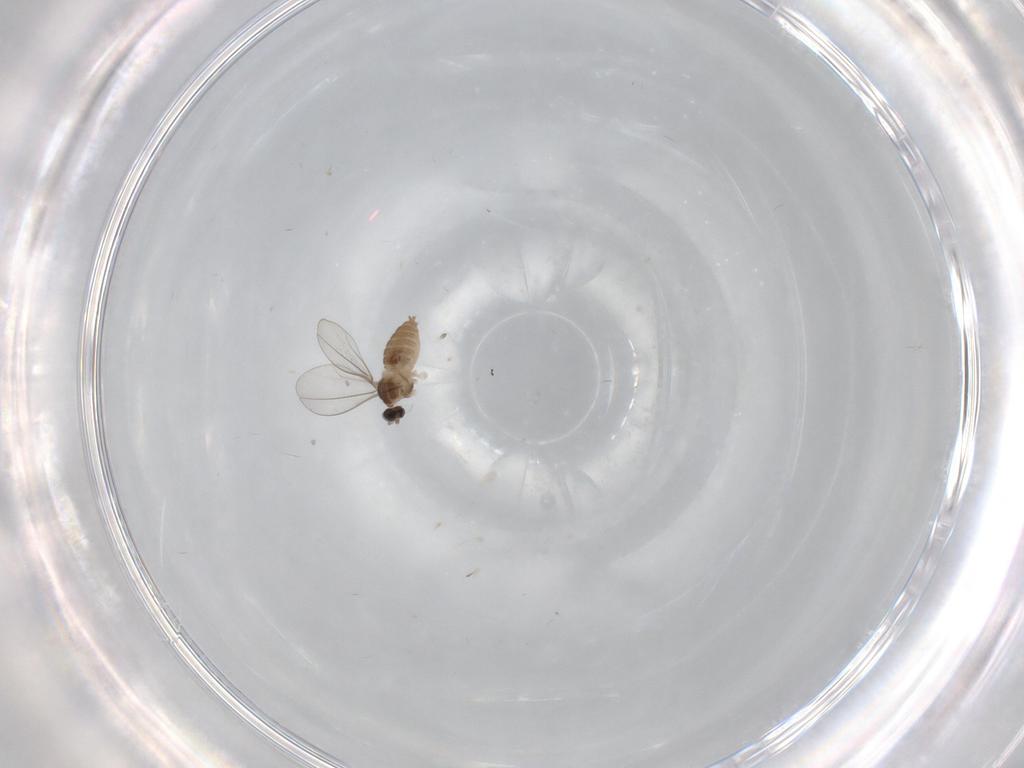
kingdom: Animalia
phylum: Arthropoda
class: Insecta
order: Diptera
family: Cecidomyiidae
